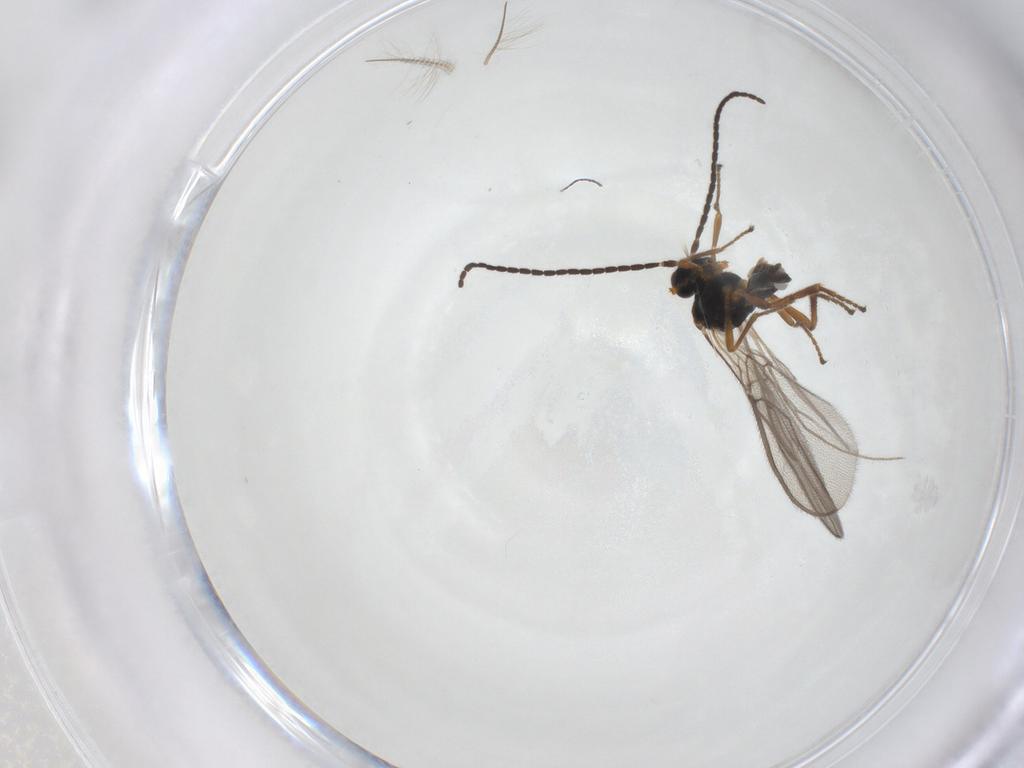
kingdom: Animalia
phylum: Arthropoda
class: Insecta
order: Hymenoptera
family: Braconidae
